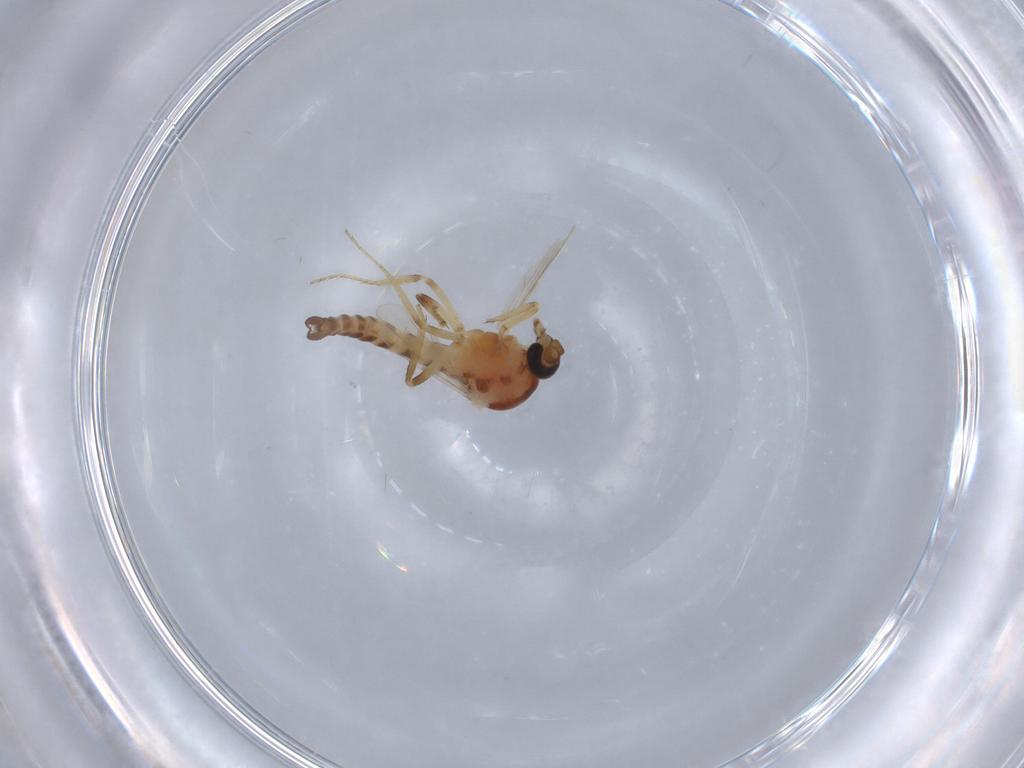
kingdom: Animalia
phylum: Arthropoda
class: Insecta
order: Diptera
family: Ceratopogonidae
